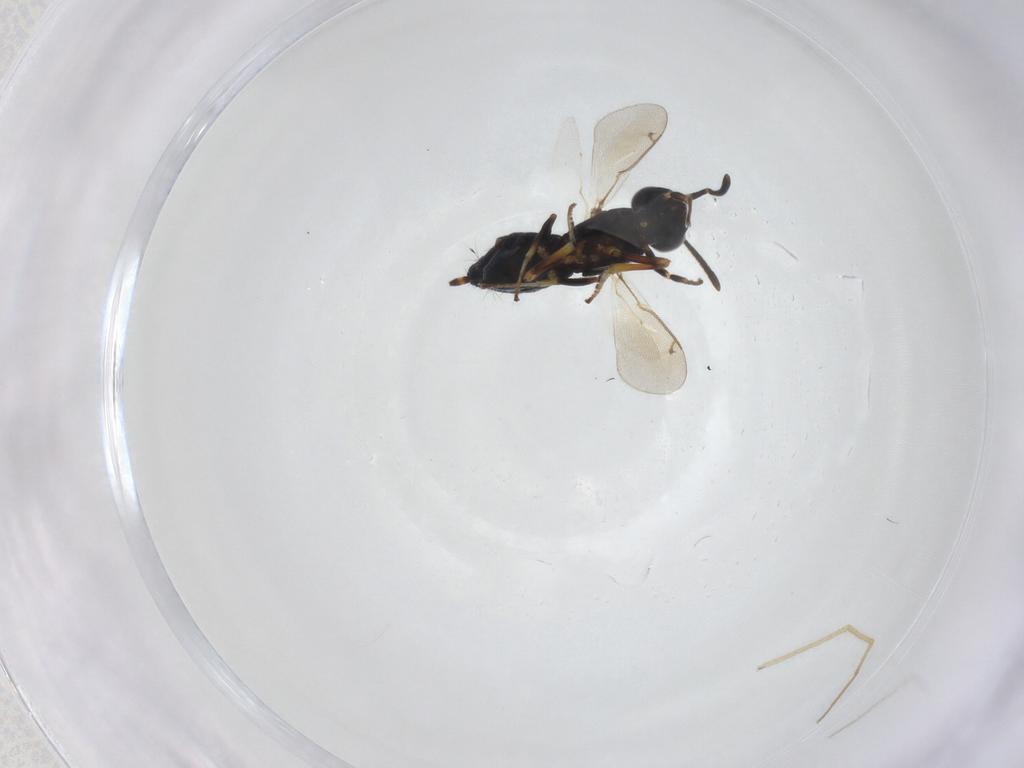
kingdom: Animalia
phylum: Arthropoda
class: Insecta
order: Hymenoptera
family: Eupelmidae
